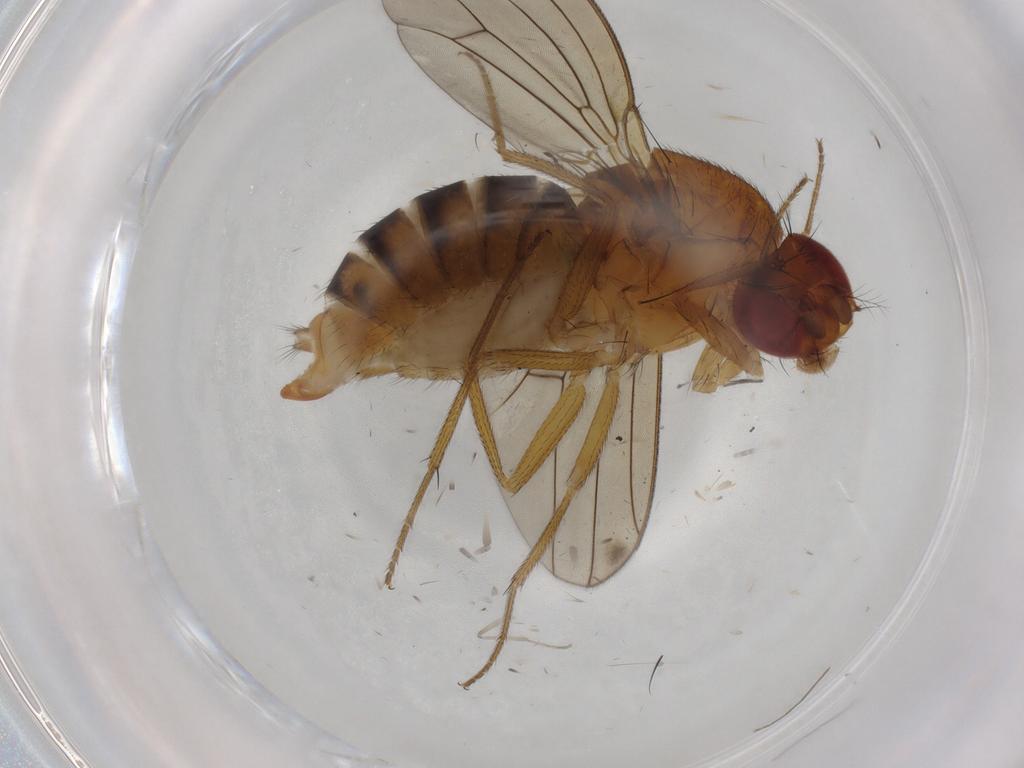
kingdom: Animalia
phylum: Arthropoda
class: Insecta
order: Diptera
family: Drosophilidae
